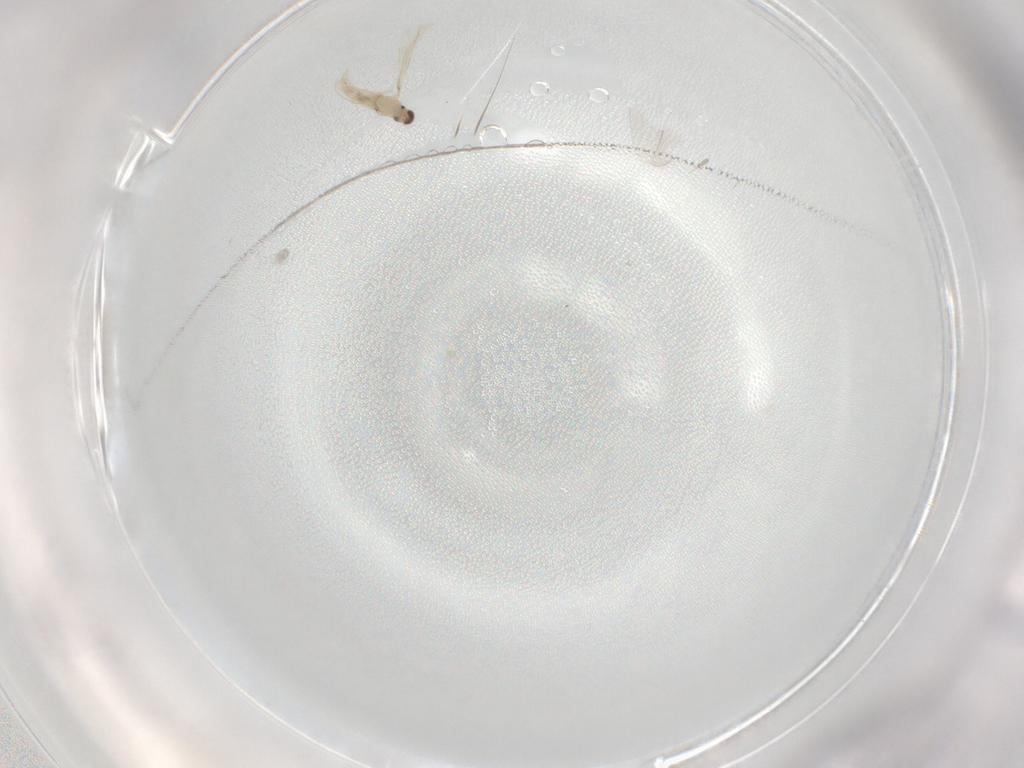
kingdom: Animalia
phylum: Arthropoda
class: Insecta
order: Diptera
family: Cecidomyiidae
